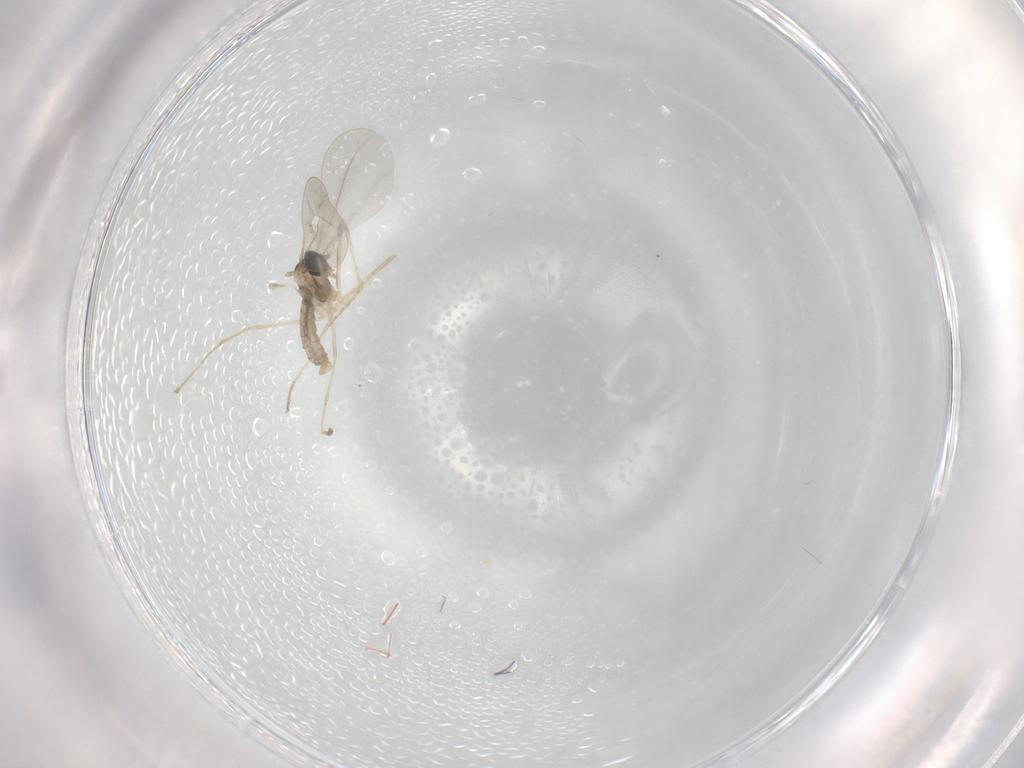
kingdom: Animalia
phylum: Arthropoda
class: Insecta
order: Diptera
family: Cecidomyiidae
